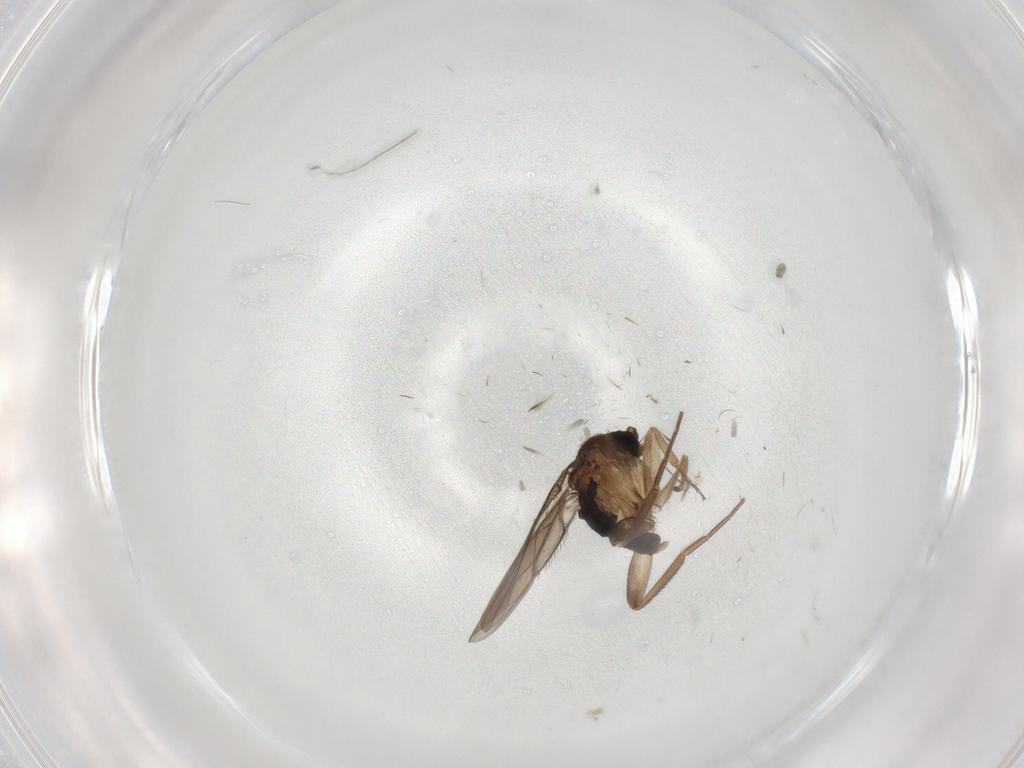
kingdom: Animalia
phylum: Arthropoda
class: Insecta
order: Diptera
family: Chironomidae
